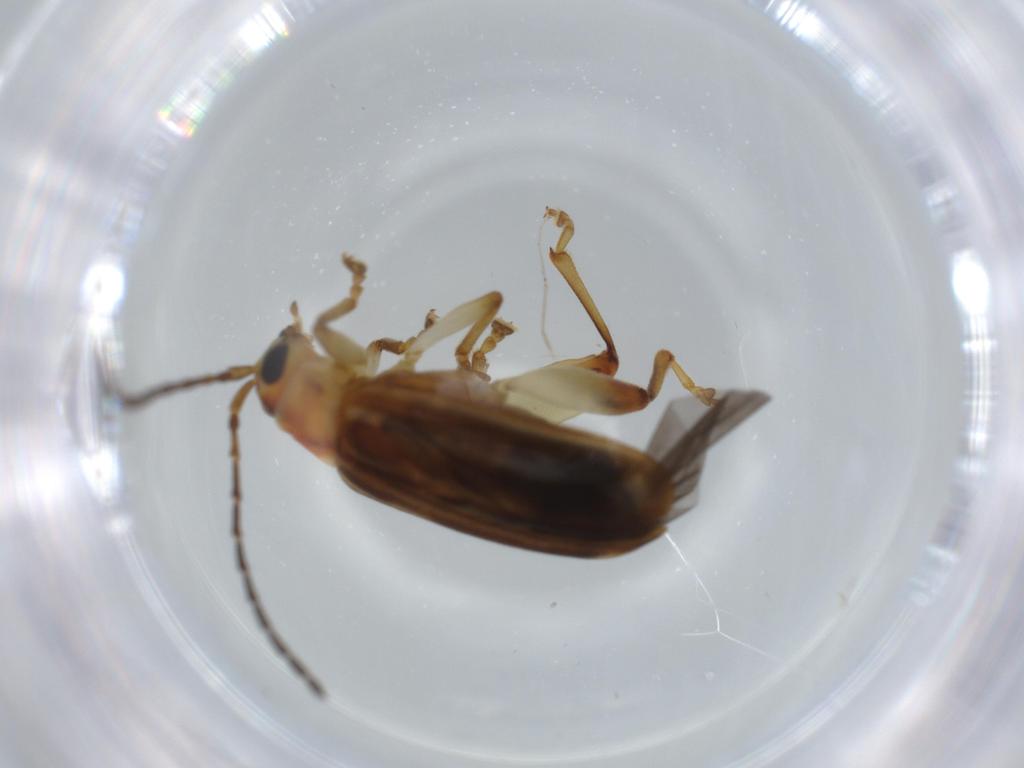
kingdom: Animalia
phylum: Arthropoda
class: Insecta
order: Coleoptera
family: Chrysomelidae
